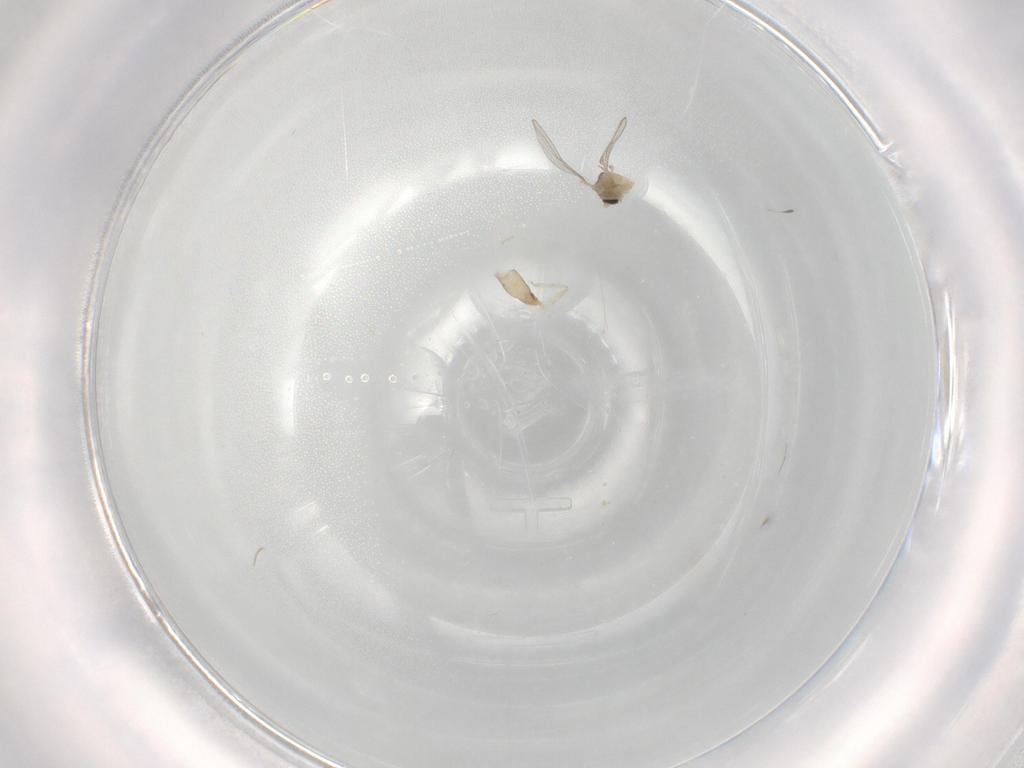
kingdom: Animalia
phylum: Arthropoda
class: Insecta
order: Diptera
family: Cecidomyiidae
